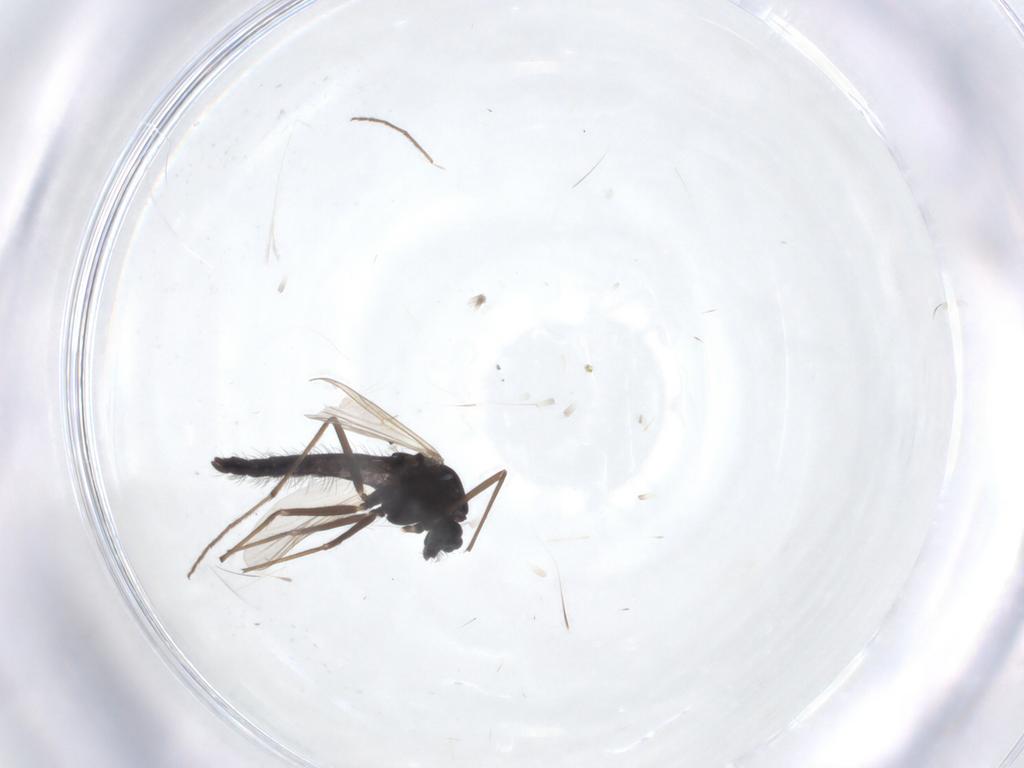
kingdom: Animalia
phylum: Arthropoda
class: Insecta
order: Diptera
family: Chironomidae
